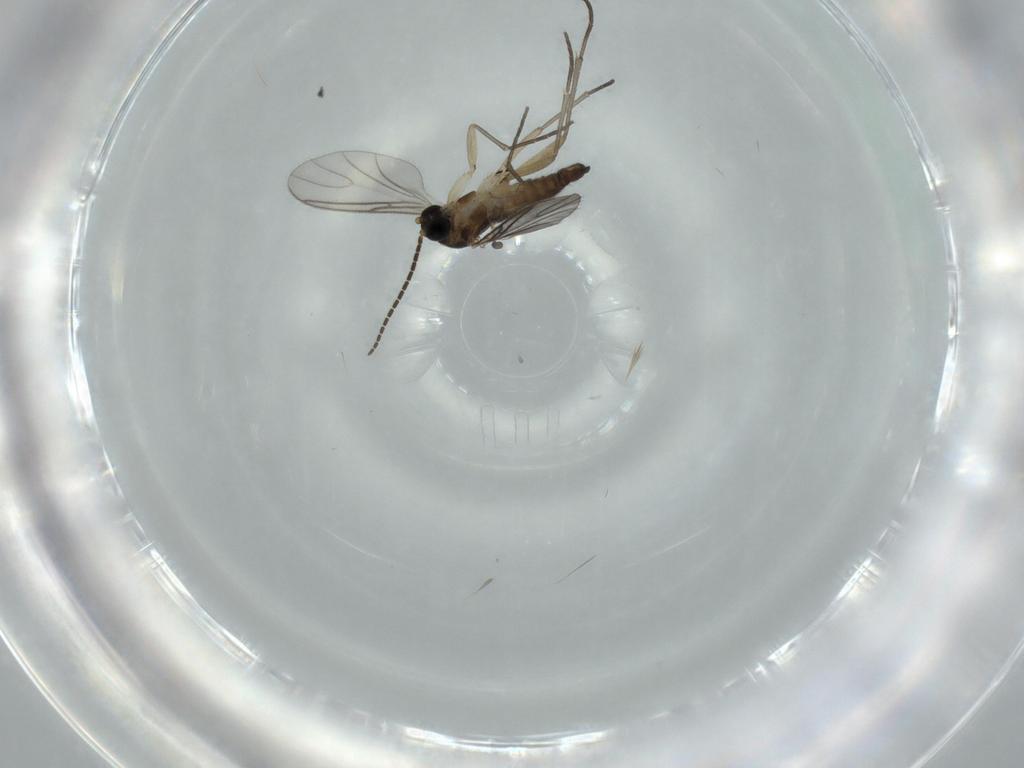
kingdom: Animalia
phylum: Arthropoda
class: Insecta
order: Diptera
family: Sciaridae
